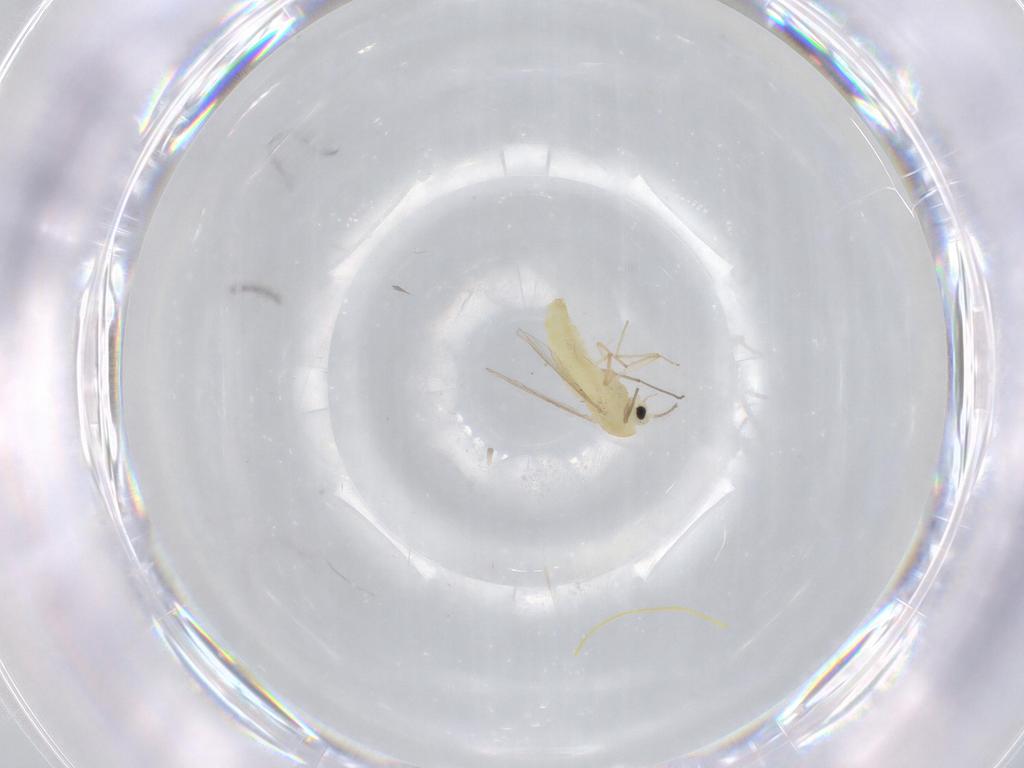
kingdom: Animalia
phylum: Arthropoda
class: Insecta
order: Diptera
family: Chironomidae
